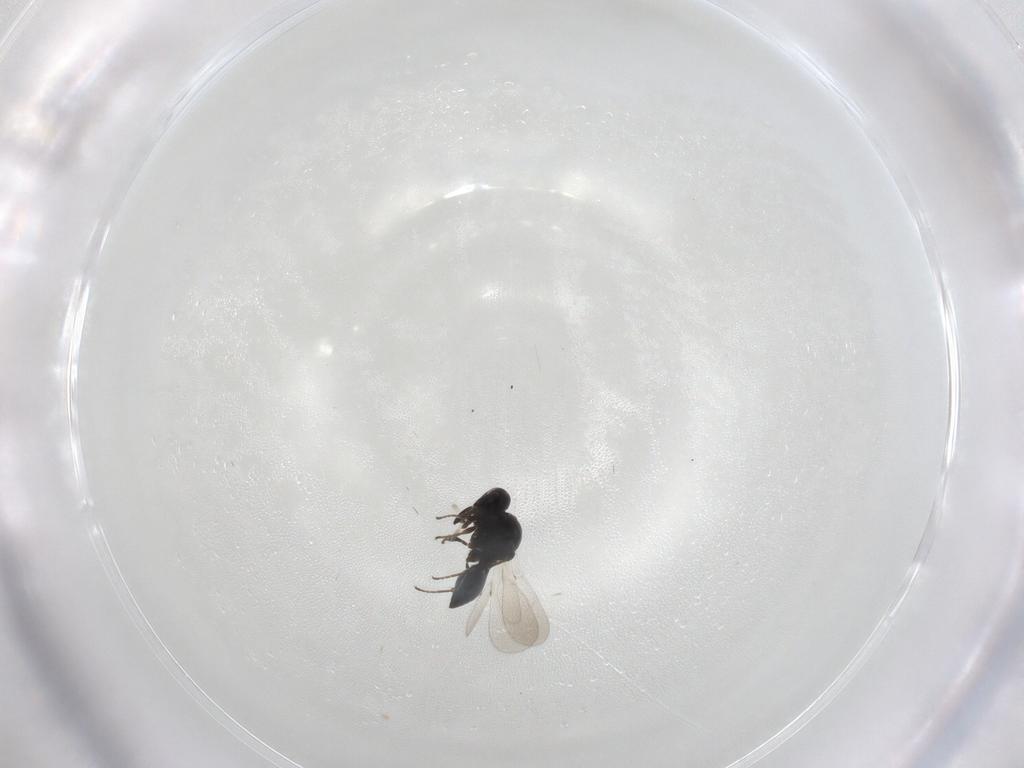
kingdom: Animalia
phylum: Arthropoda
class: Insecta
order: Hymenoptera
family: Platygastridae
